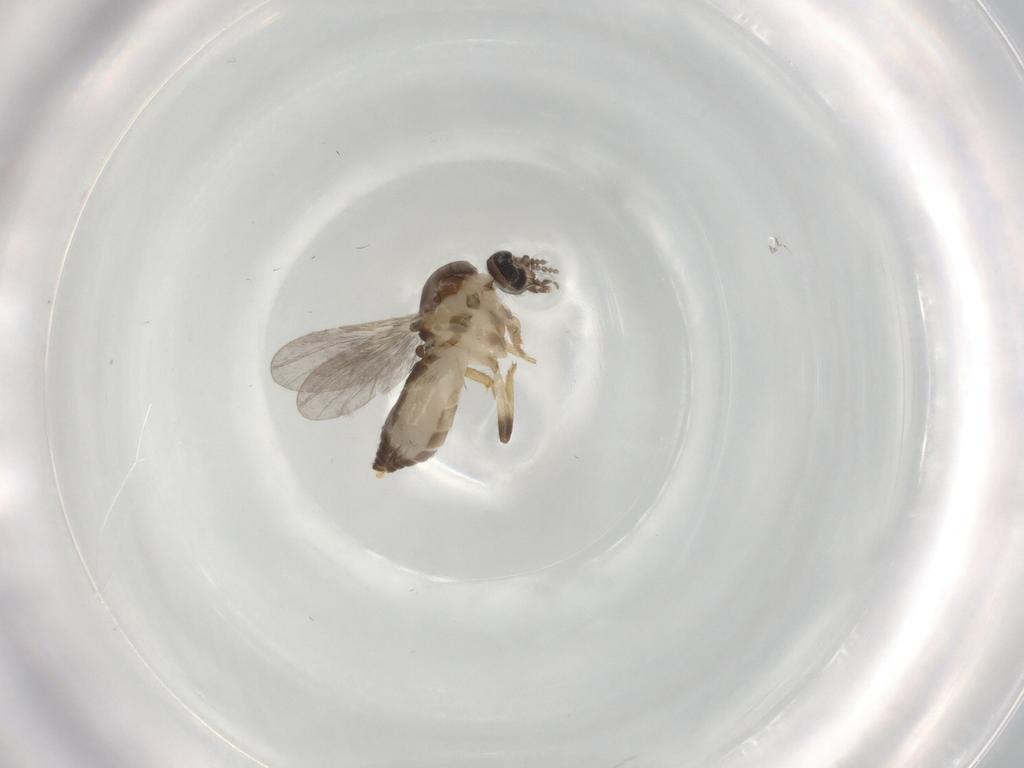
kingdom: Animalia
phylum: Arthropoda
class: Insecta
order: Diptera
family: Ceratopogonidae
